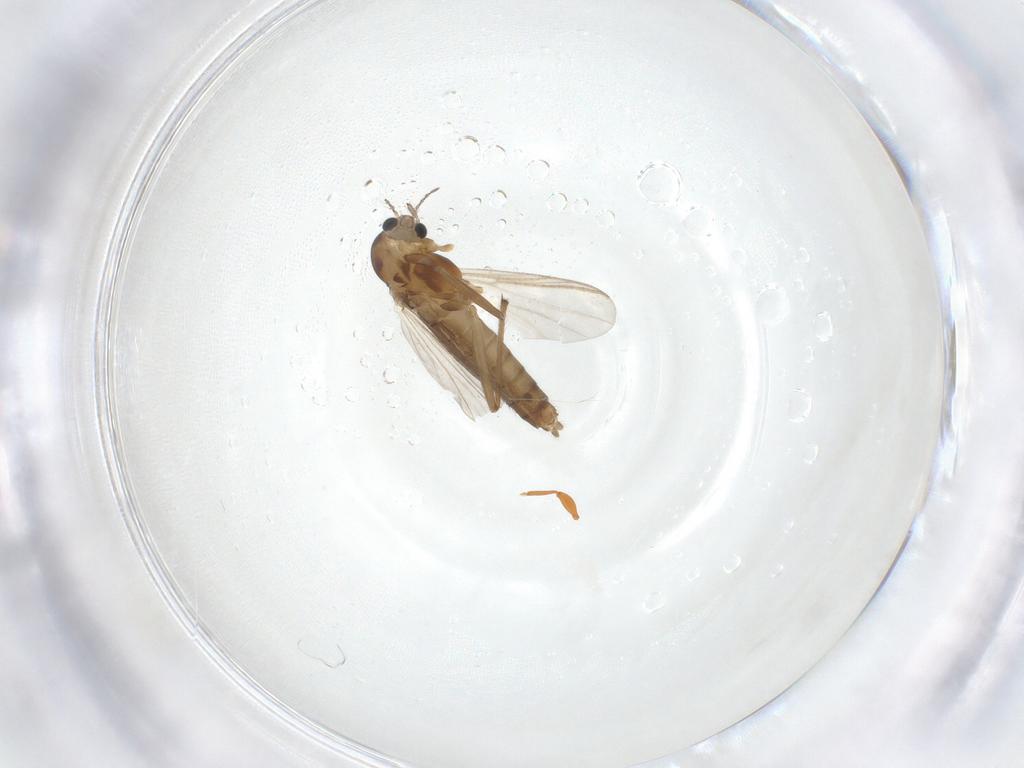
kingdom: Animalia
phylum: Arthropoda
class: Insecta
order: Diptera
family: Chironomidae
